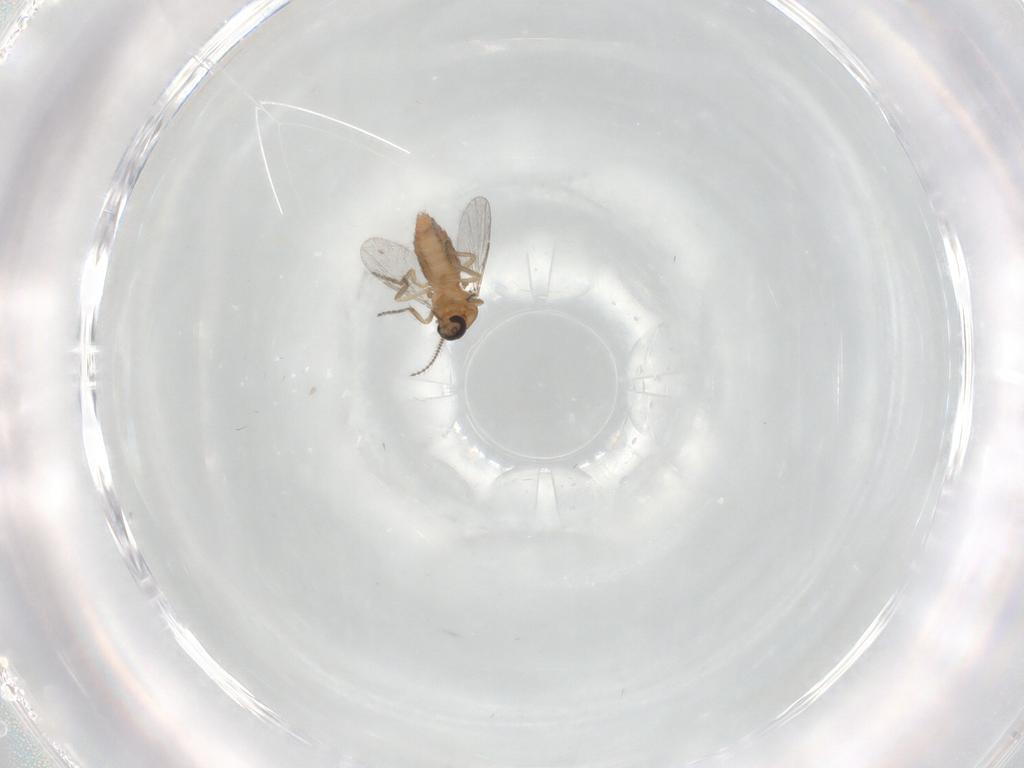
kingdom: Animalia
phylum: Arthropoda
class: Insecta
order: Diptera
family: Ceratopogonidae
